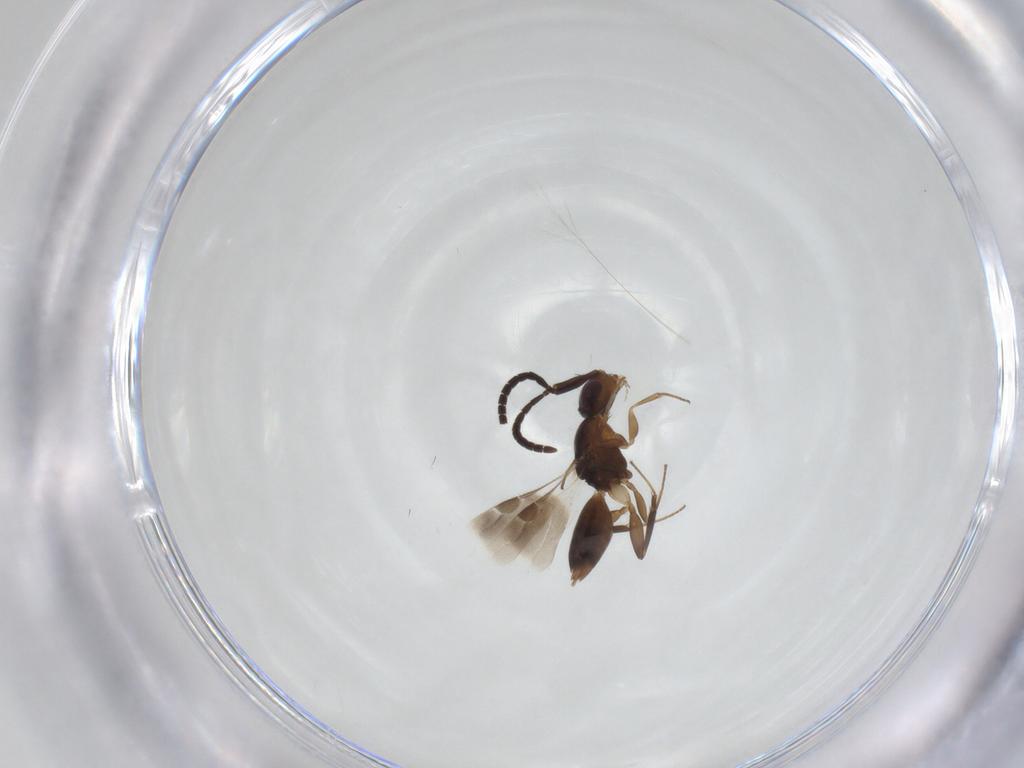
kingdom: Animalia
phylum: Arthropoda
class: Insecta
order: Hymenoptera
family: Megaspilidae
